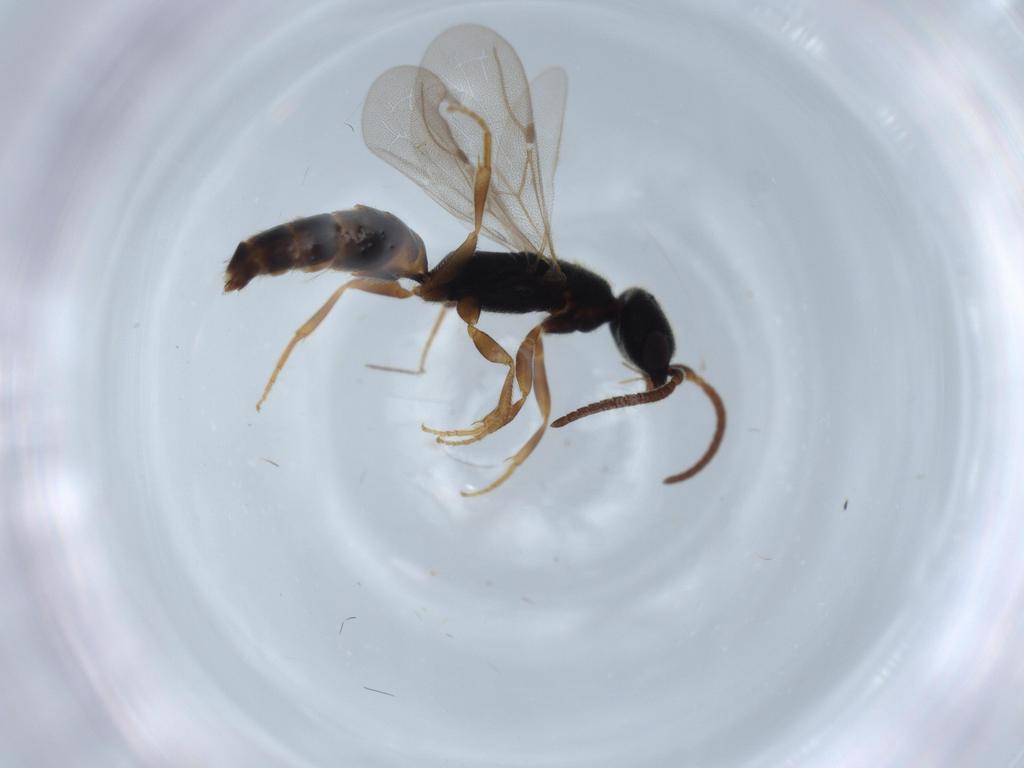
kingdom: Animalia
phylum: Arthropoda
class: Insecta
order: Hymenoptera
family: Bethylidae
